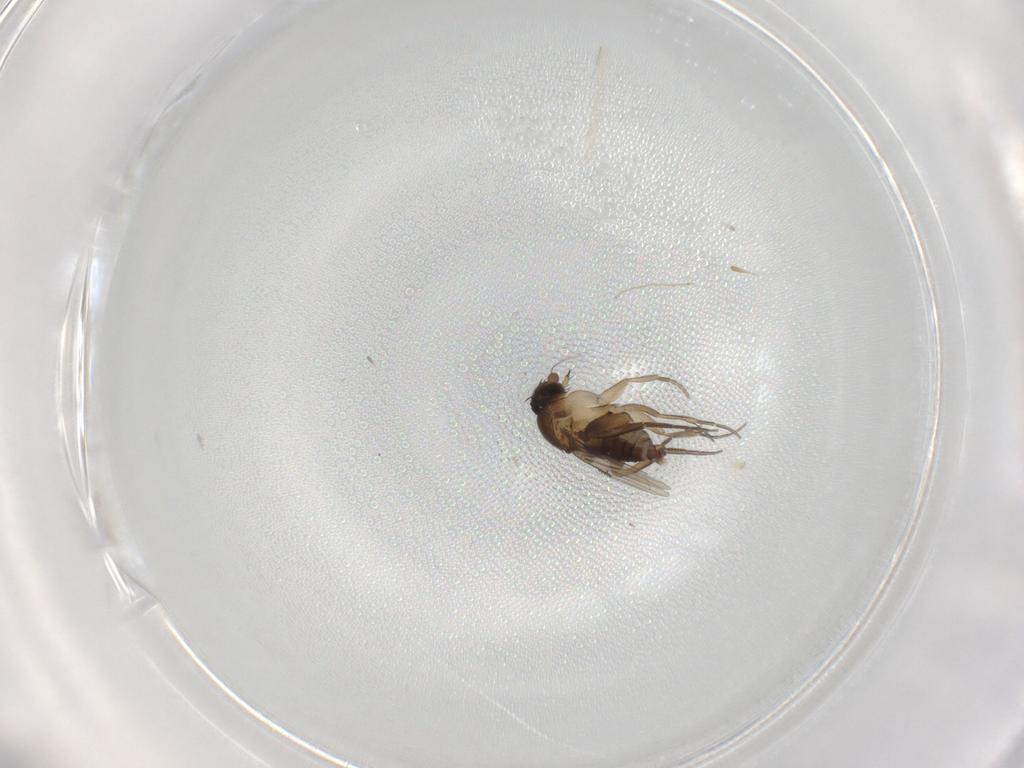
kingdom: Animalia
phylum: Arthropoda
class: Insecta
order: Diptera
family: Phoridae
